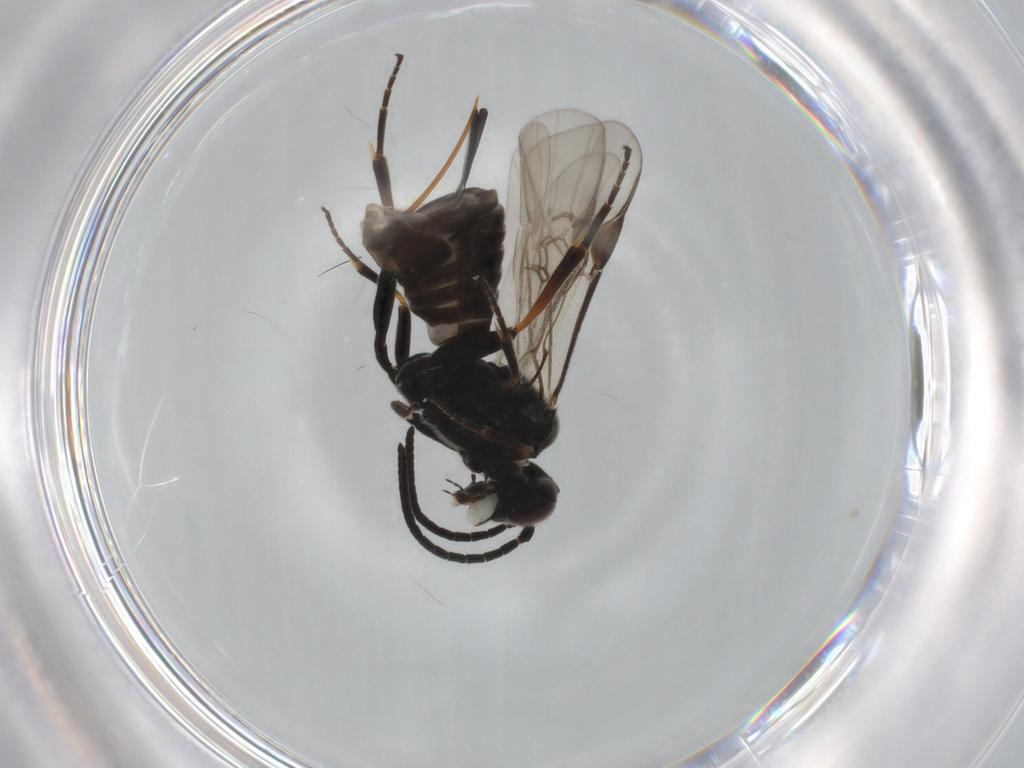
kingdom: Animalia
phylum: Arthropoda
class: Insecta
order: Hymenoptera
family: Braconidae
